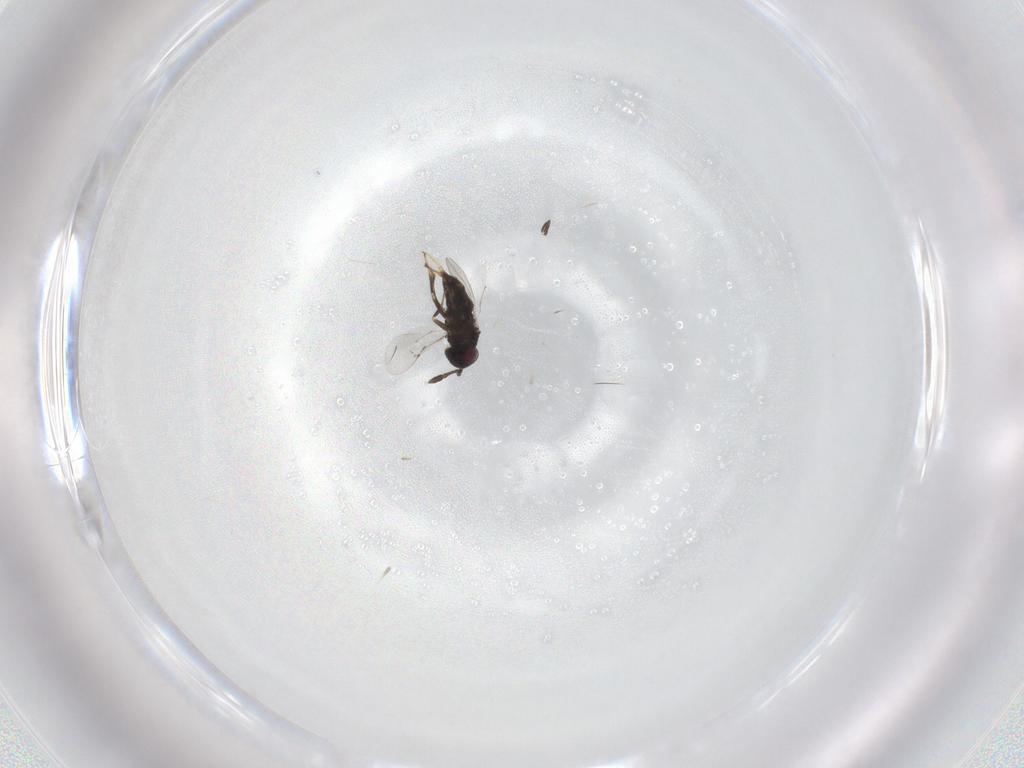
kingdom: Animalia
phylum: Arthropoda
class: Insecta
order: Hymenoptera
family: Encyrtidae
